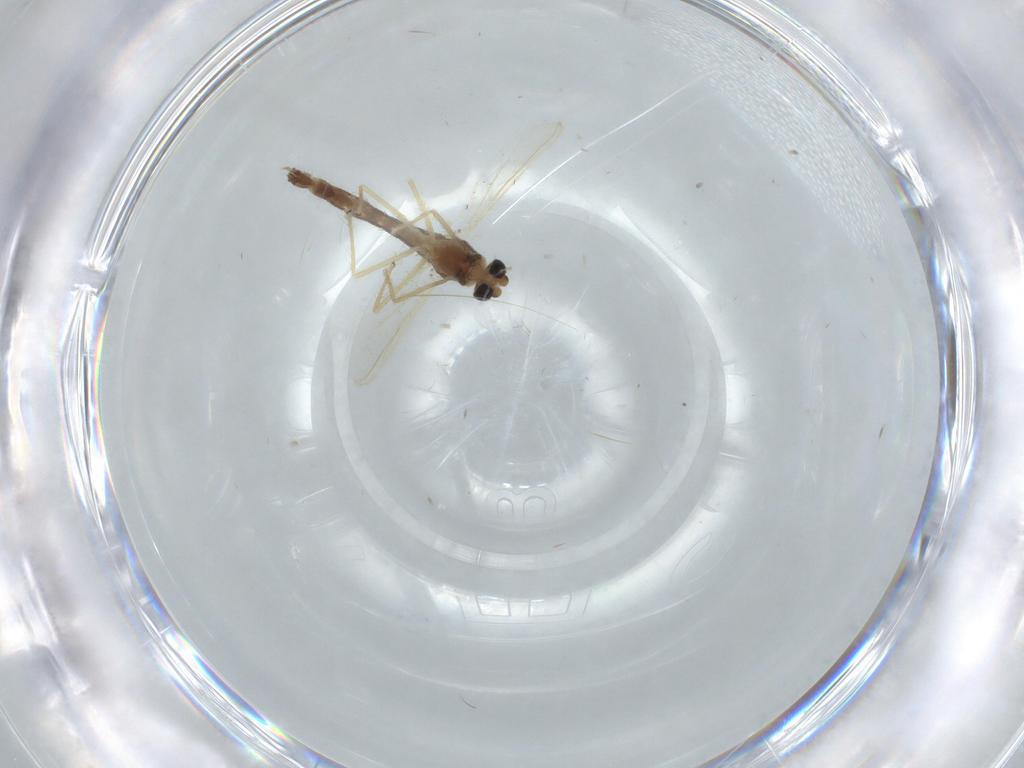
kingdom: Animalia
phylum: Arthropoda
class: Insecta
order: Diptera
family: Chironomidae
